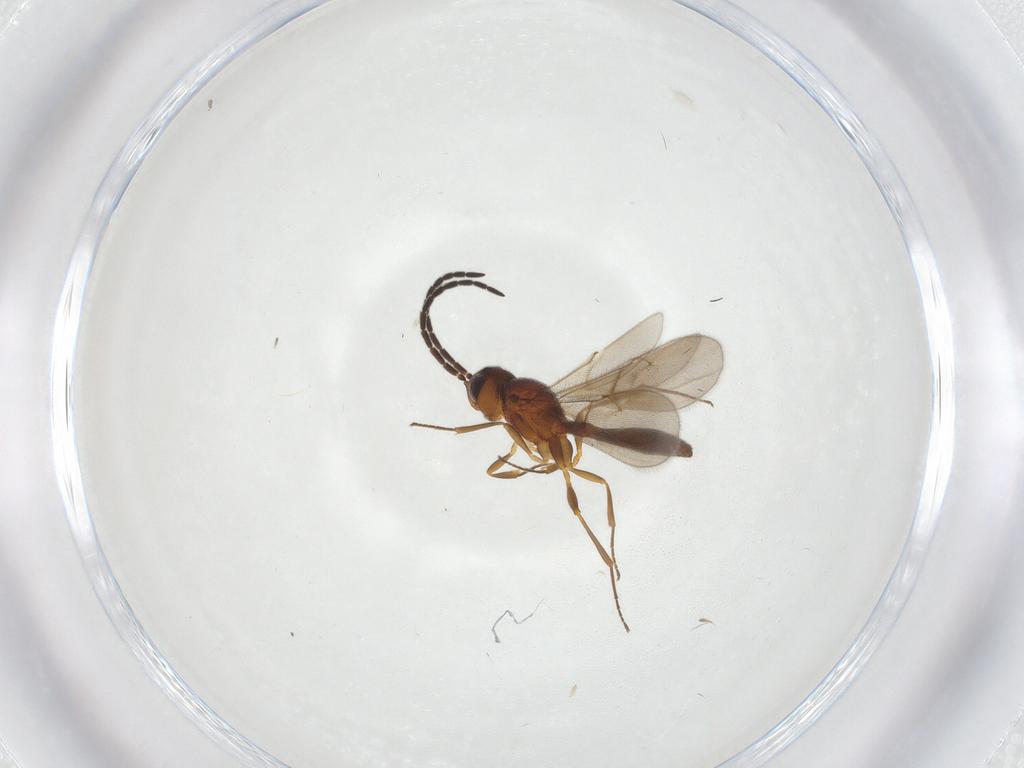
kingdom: Animalia
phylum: Arthropoda
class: Insecta
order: Hymenoptera
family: Scelionidae
